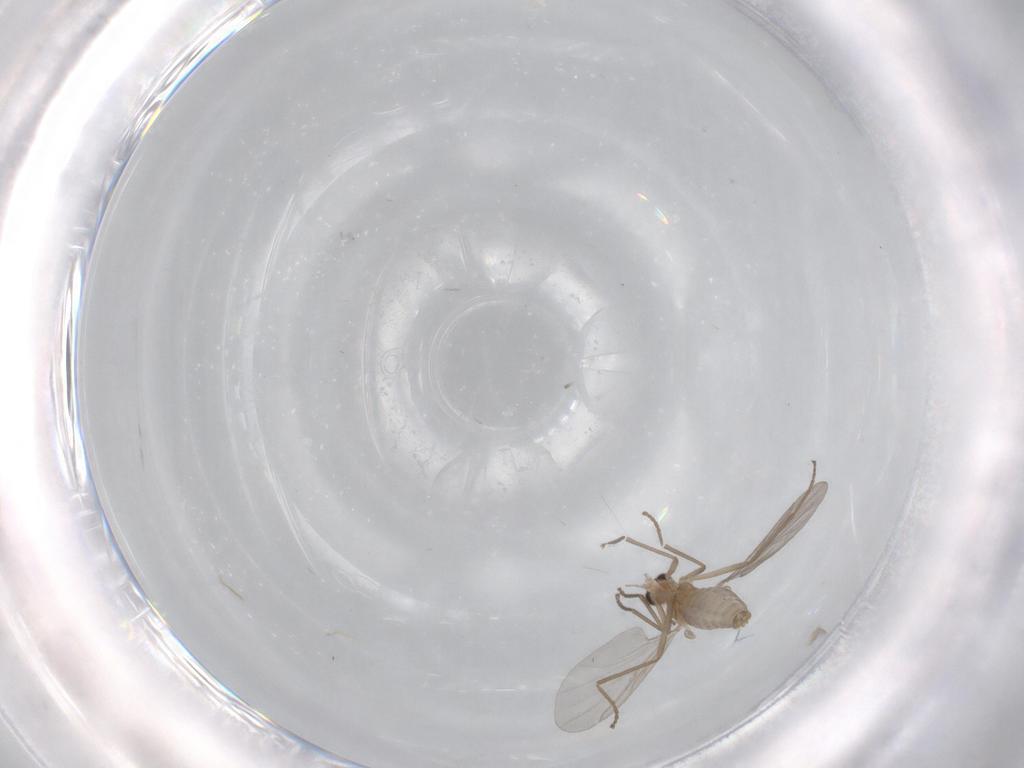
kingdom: Animalia
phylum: Arthropoda
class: Insecta
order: Diptera
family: Cecidomyiidae
